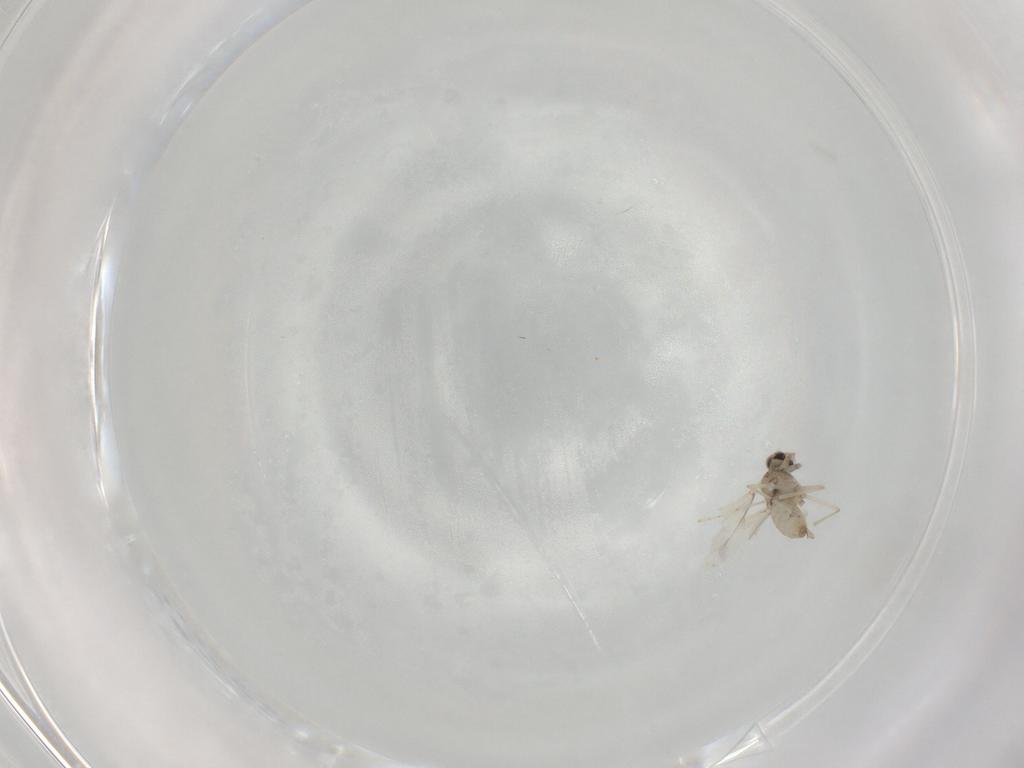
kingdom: Animalia
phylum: Arthropoda
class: Insecta
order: Diptera
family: Cecidomyiidae
